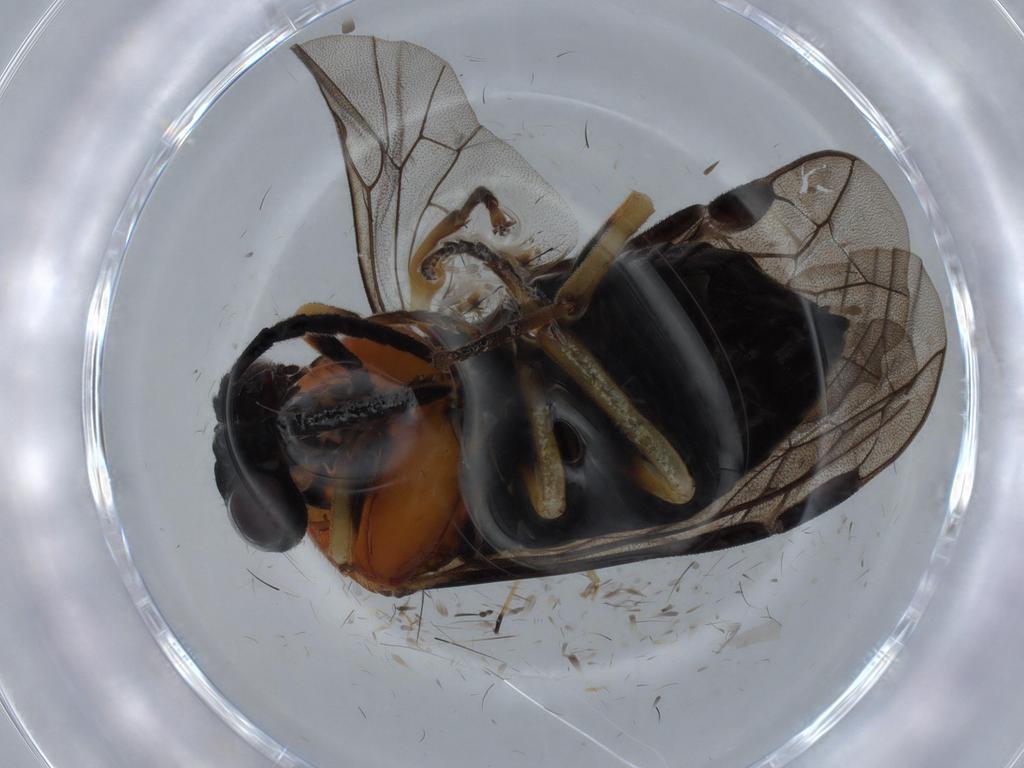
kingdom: Animalia
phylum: Arthropoda
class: Insecta
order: Hymenoptera
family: Tenthredinidae
